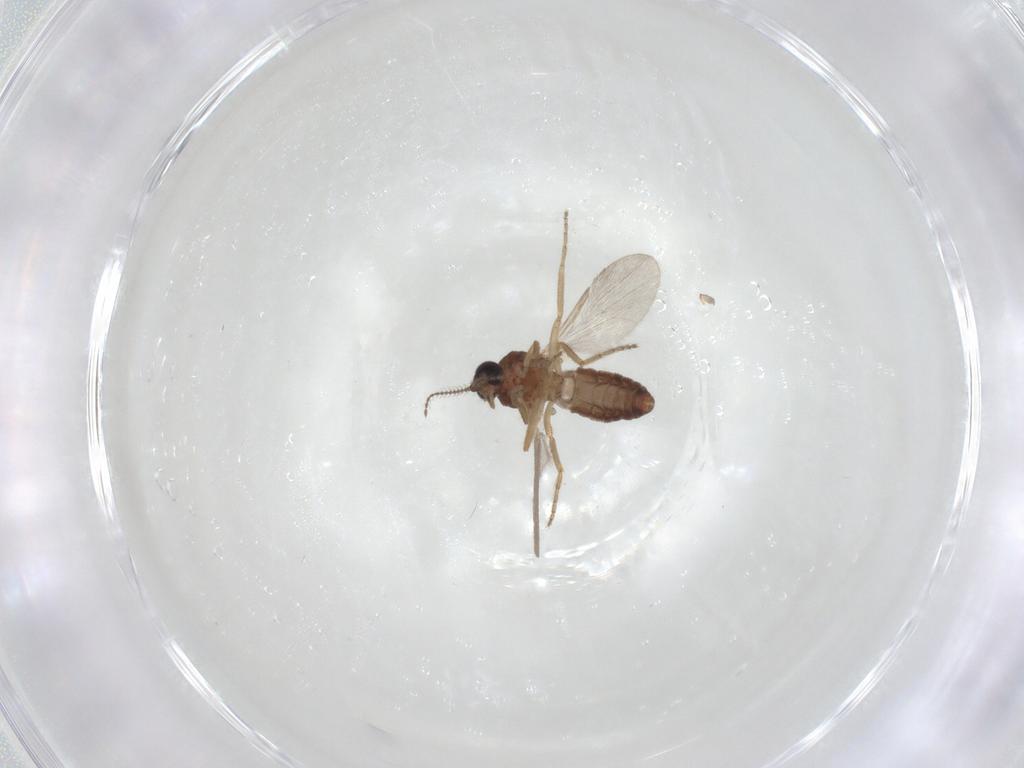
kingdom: Animalia
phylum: Arthropoda
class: Insecta
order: Diptera
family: Ceratopogonidae
